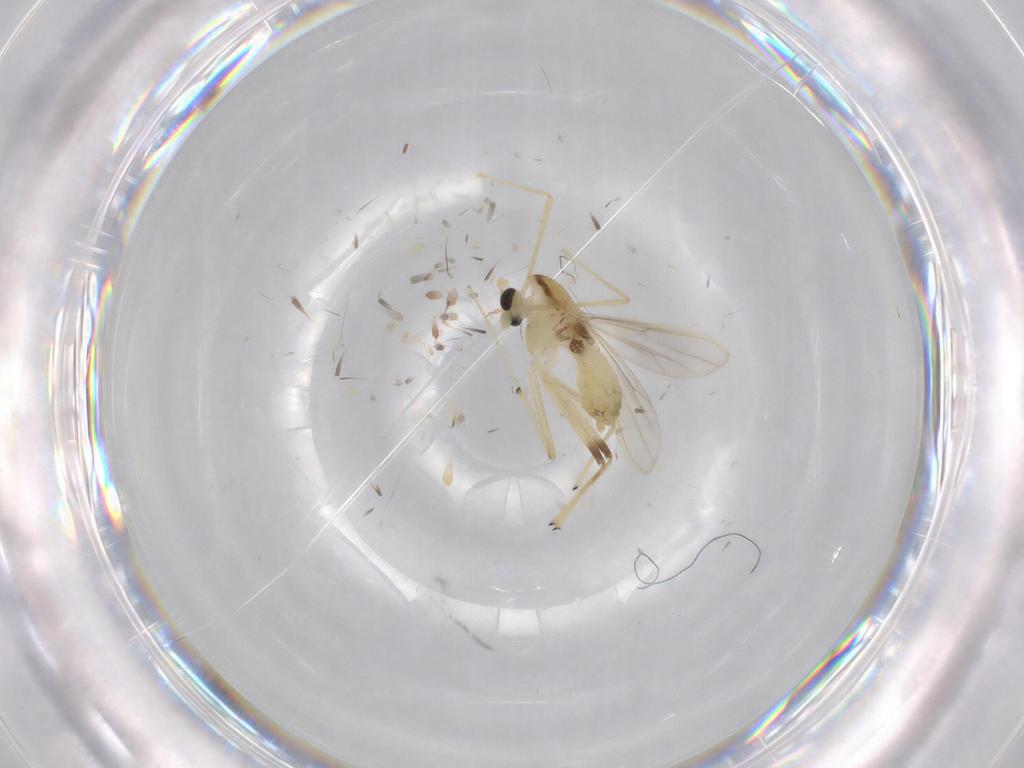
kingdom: Animalia
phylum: Arthropoda
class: Insecta
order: Diptera
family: Chironomidae
